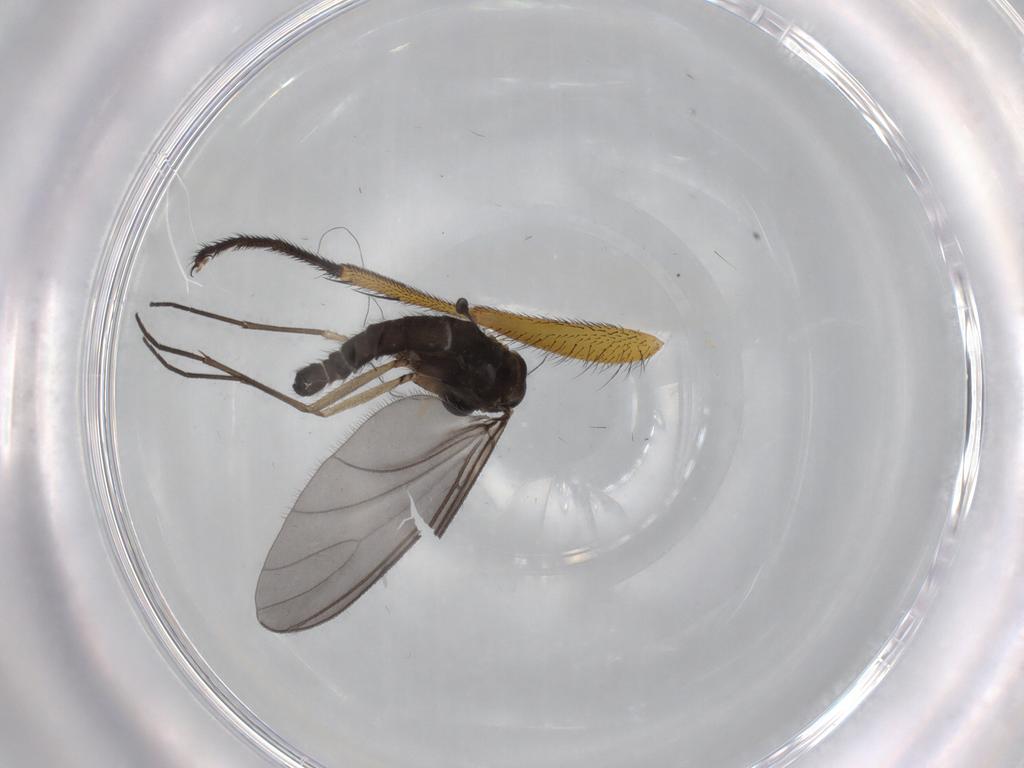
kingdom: Animalia
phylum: Arthropoda
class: Insecta
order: Diptera
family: Sciaridae
